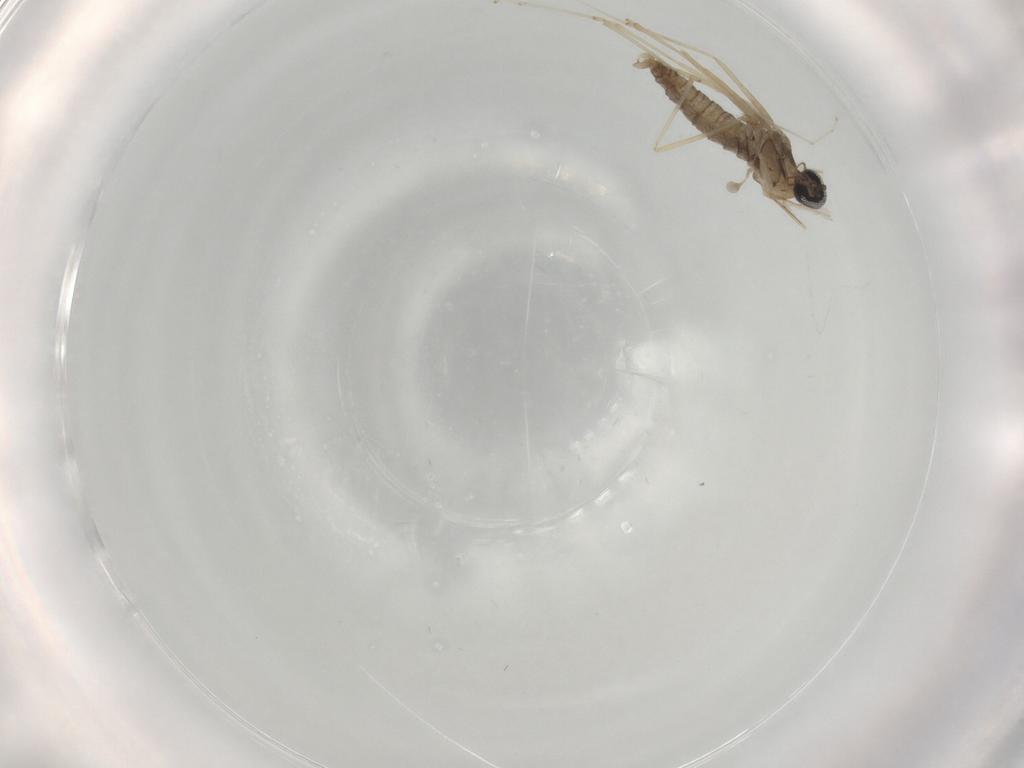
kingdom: Animalia
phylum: Arthropoda
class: Insecta
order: Diptera
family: Cecidomyiidae
